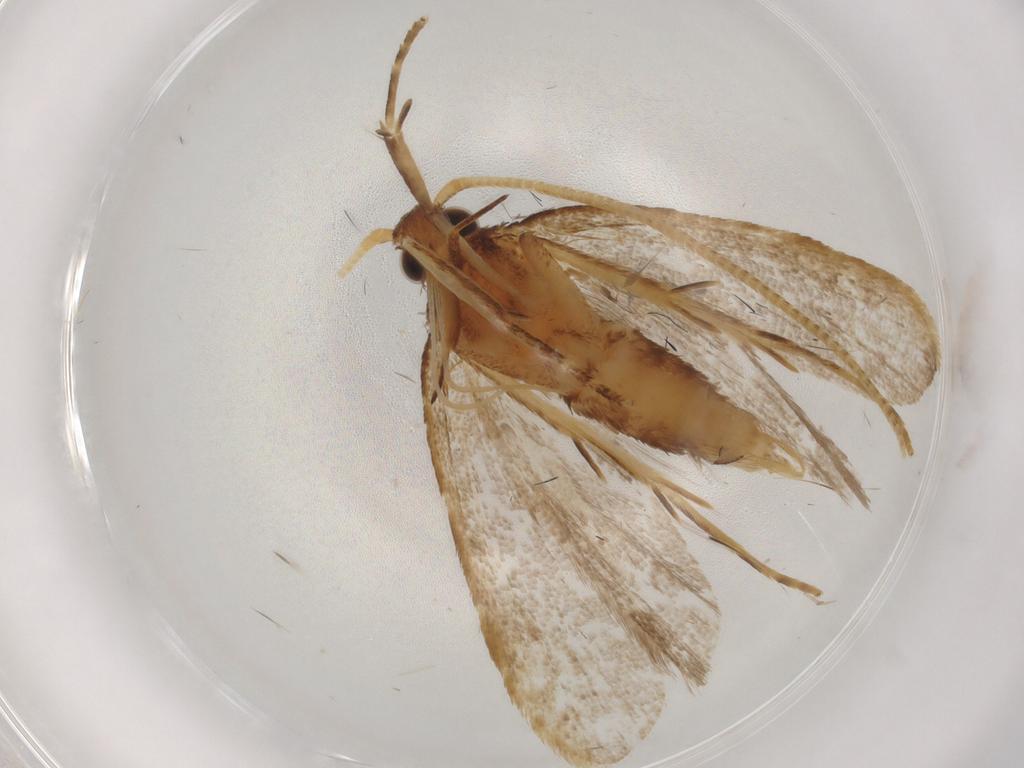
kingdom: Animalia
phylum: Arthropoda
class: Insecta
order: Lepidoptera
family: Lecithoceridae
